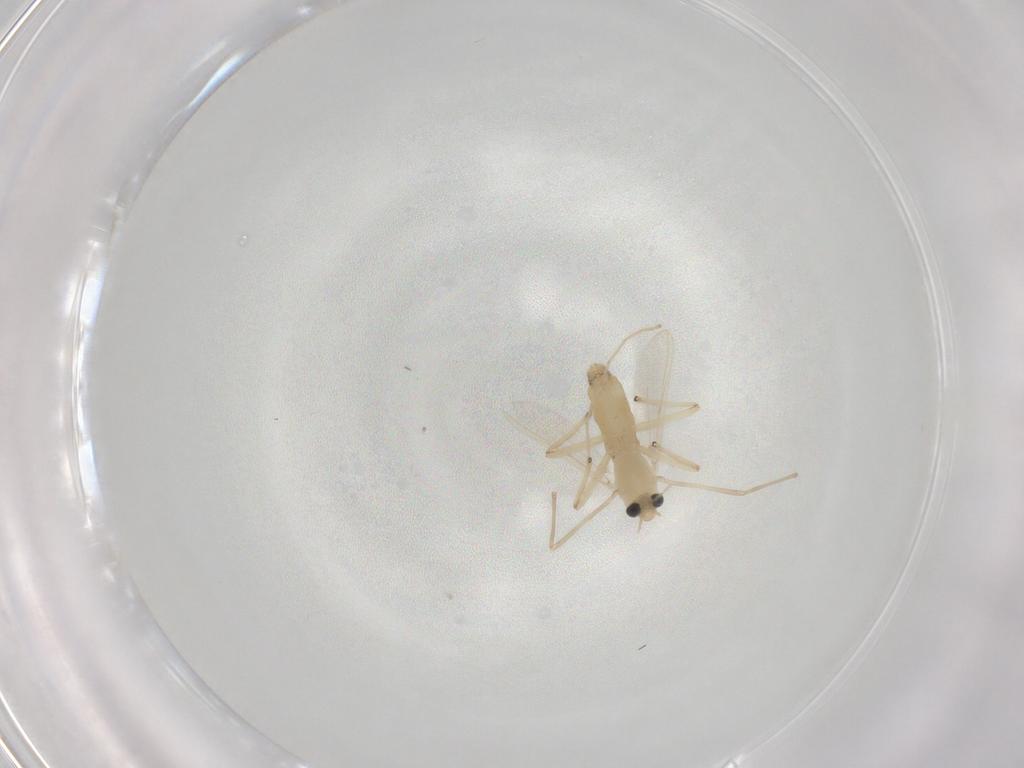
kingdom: Animalia
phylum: Arthropoda
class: Insecta
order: Diptera
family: Chironomidae
